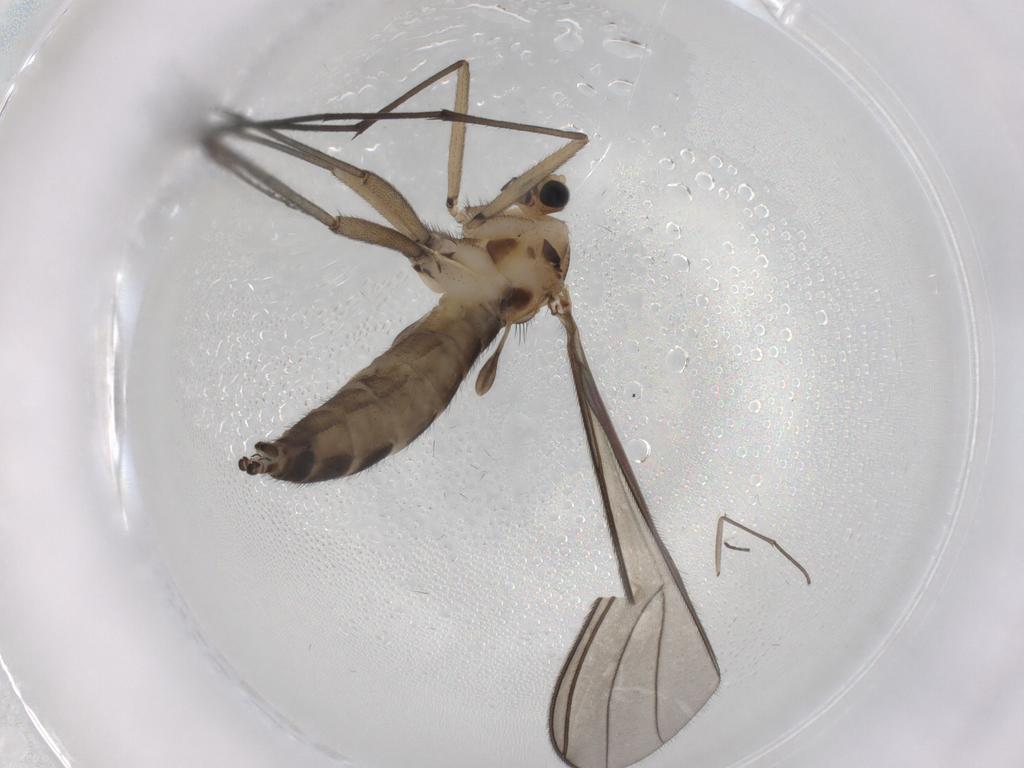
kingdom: Animalia
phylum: Arthropoda
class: Insecta
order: Diptera
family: Sciaridae
